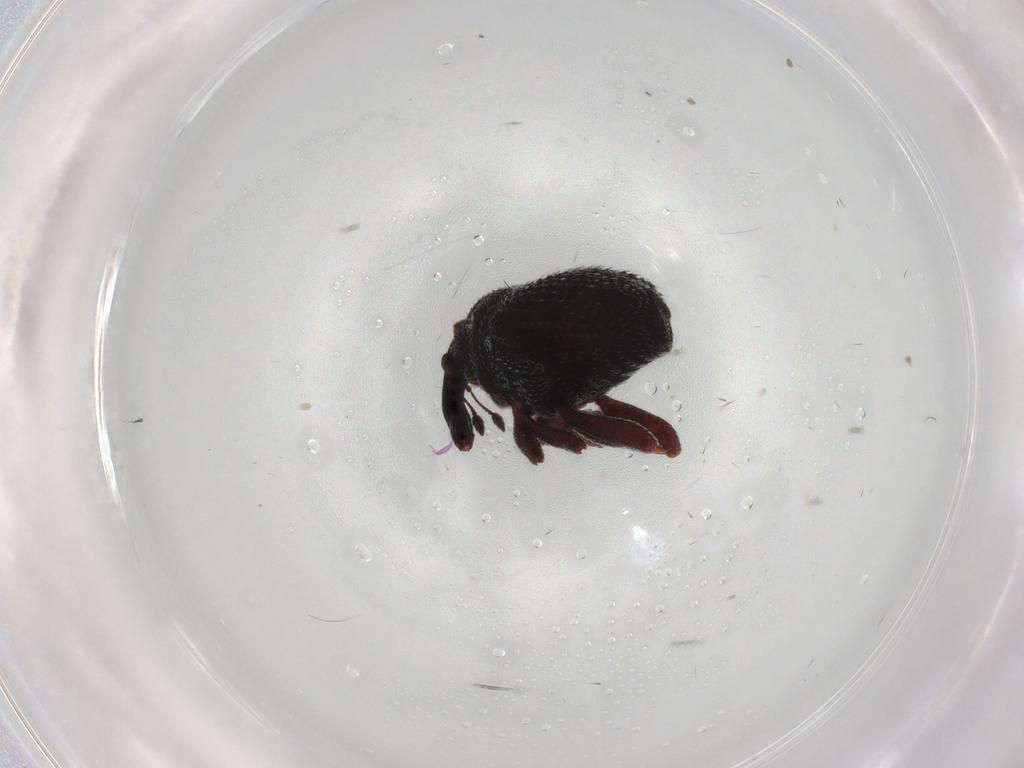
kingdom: Animalia
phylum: Arthropoda
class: Insecta
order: Coleoptera
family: Curculionidae
